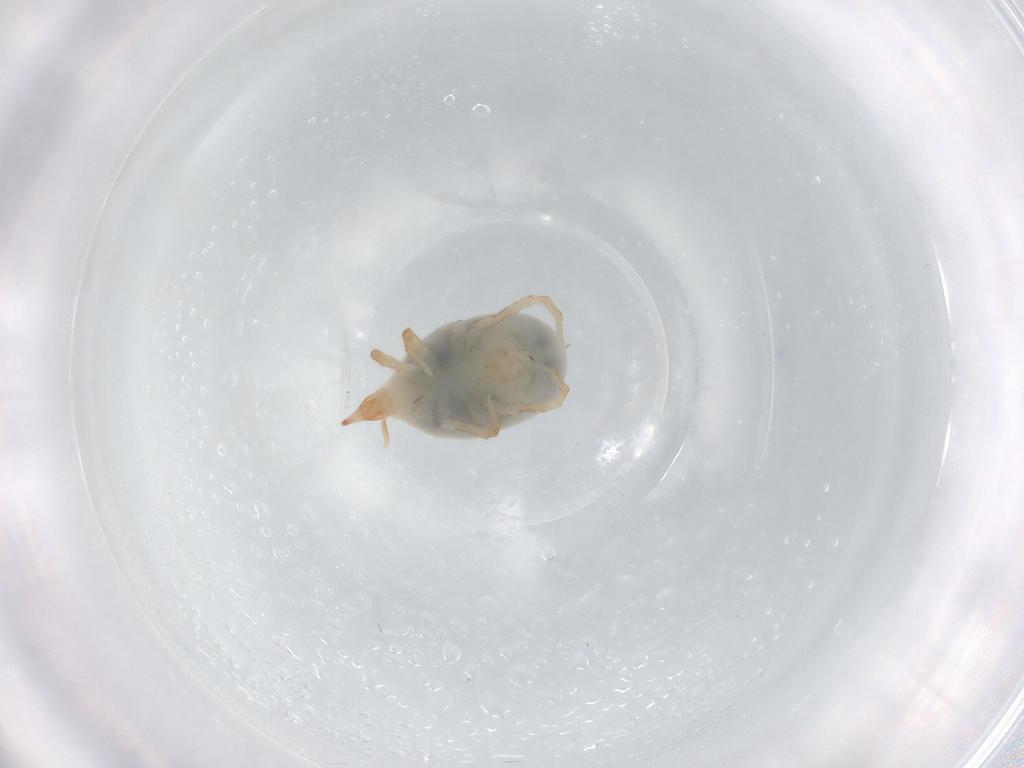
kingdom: Animalia
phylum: Arthropoda
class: Arachnida
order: Trombidiformes
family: Bdellidae
